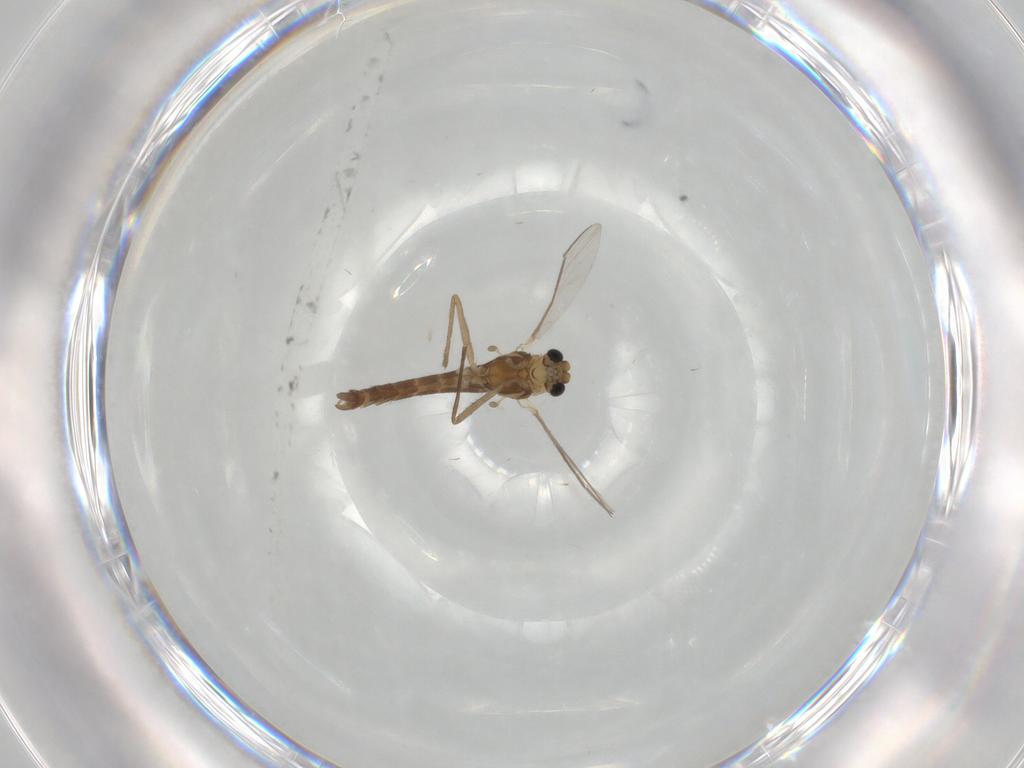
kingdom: Animalia
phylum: Arthropoda
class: Insecta
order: Diptera
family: Chironomidae
